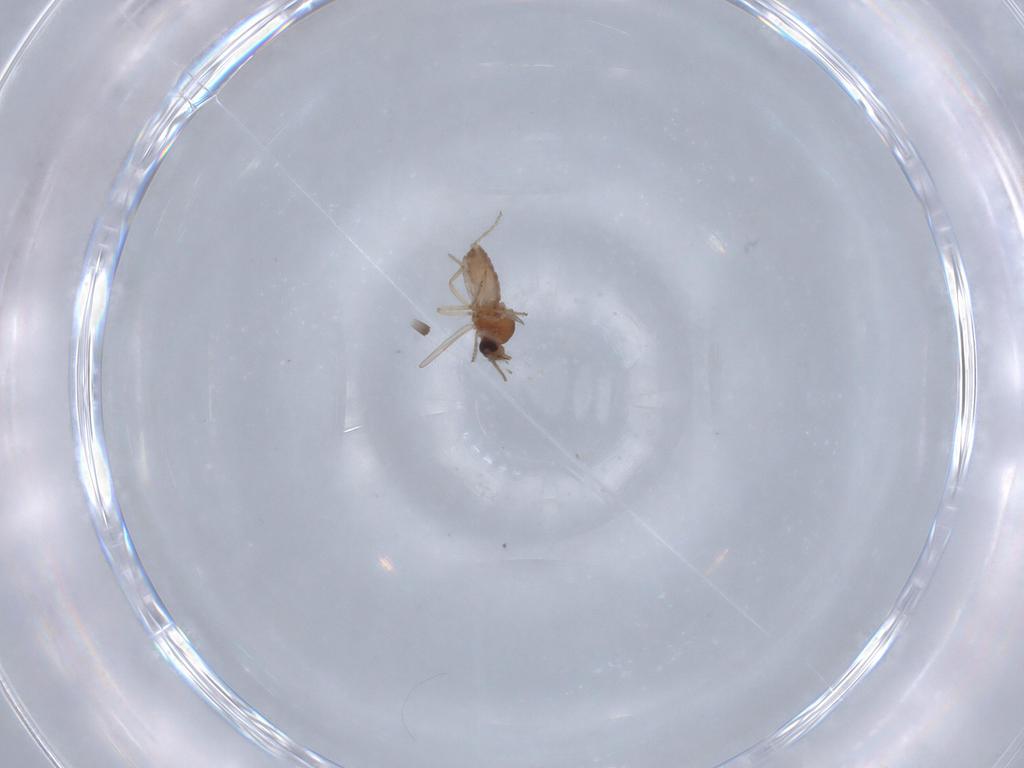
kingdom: Animalia
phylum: Arthropoda
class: Insecta
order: Diptera
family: Ceratopogonidae
